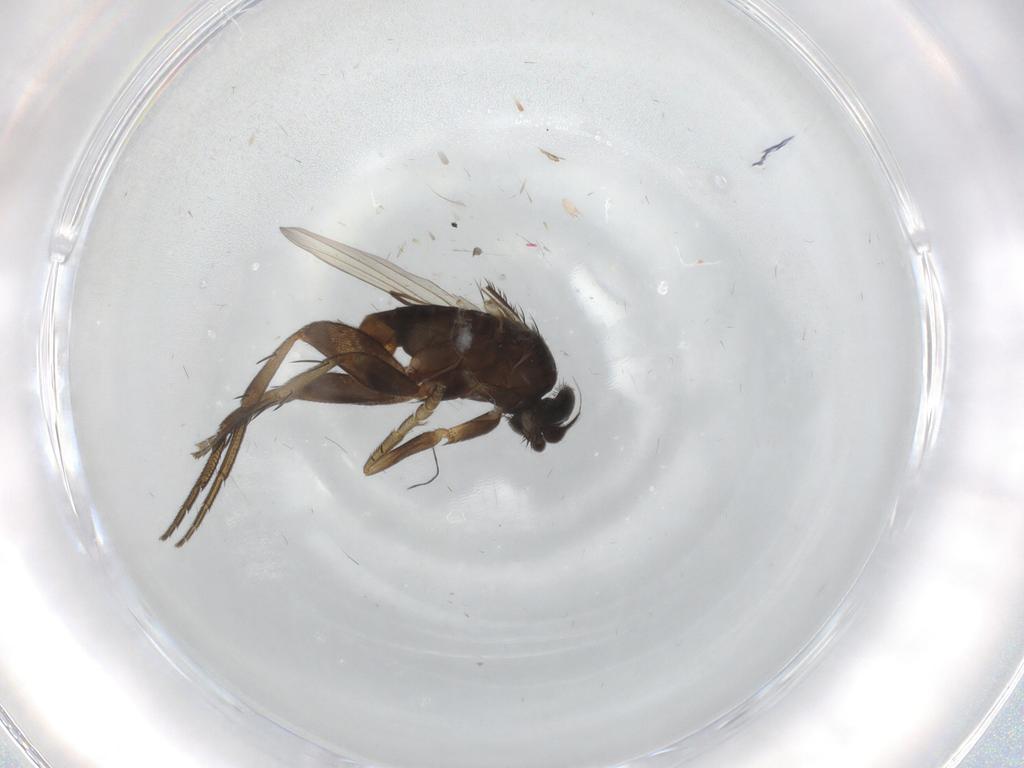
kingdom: Animalia
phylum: Arthropoda
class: Insecta
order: Diptera
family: Phoridae
